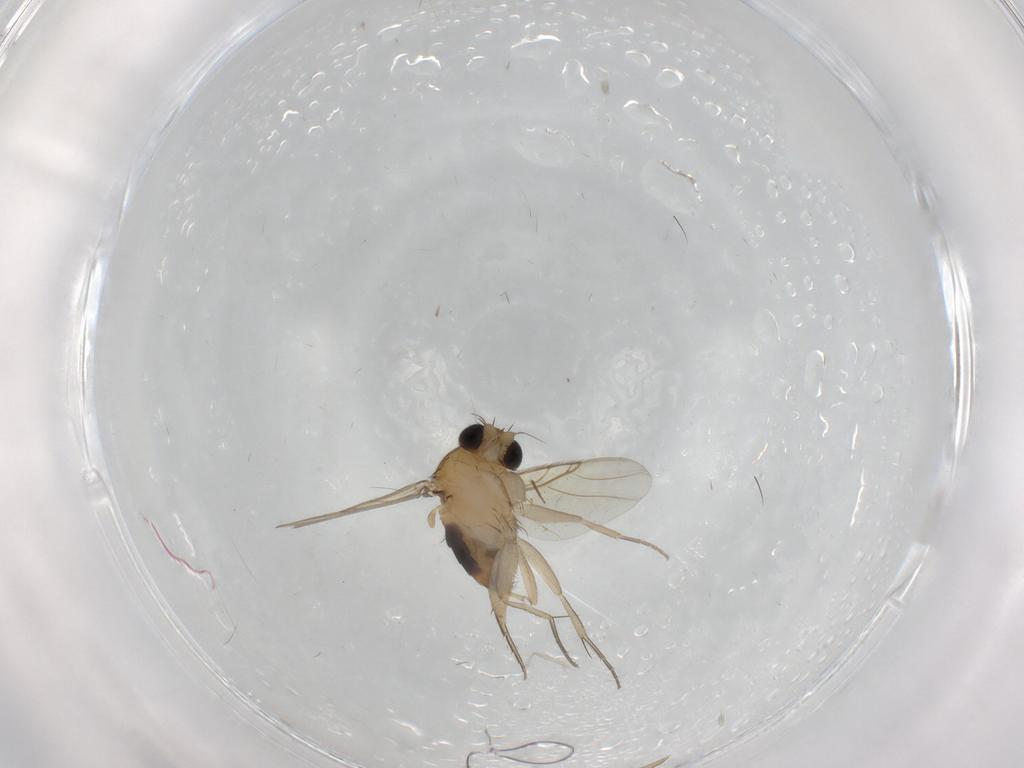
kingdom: Animalia
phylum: Arthropoda
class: Insecta
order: Diptera
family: Phoridae
